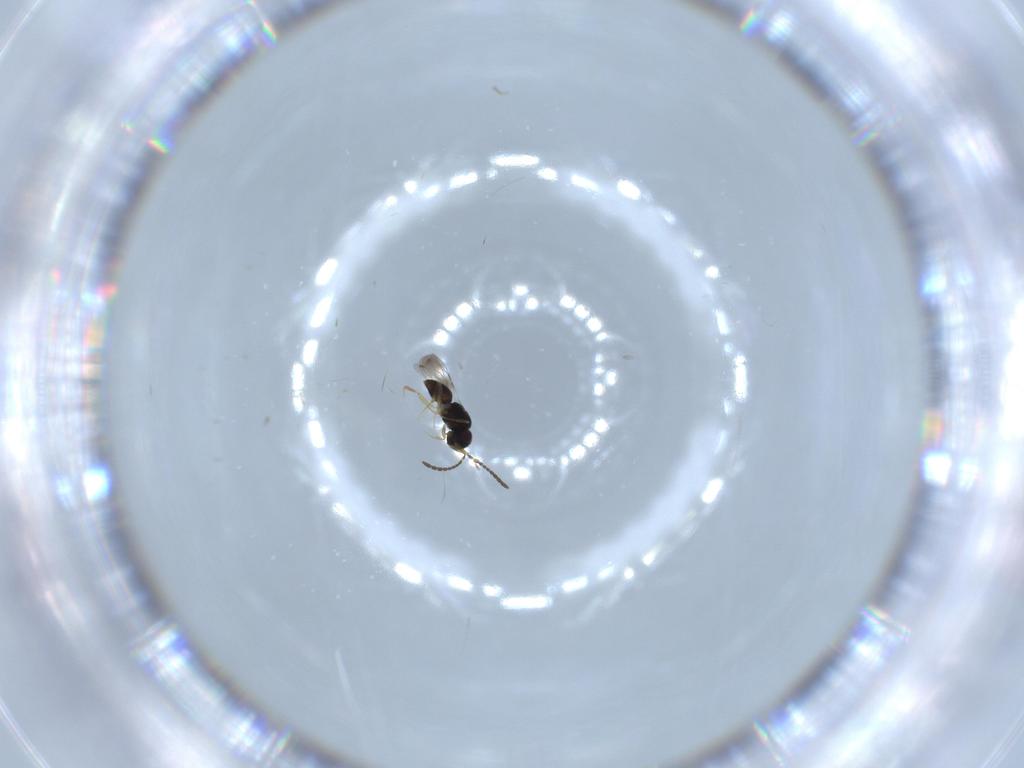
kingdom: Animalia
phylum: Arthropoda
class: Insecta
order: Hymenoptera
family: Ceraphronidae
